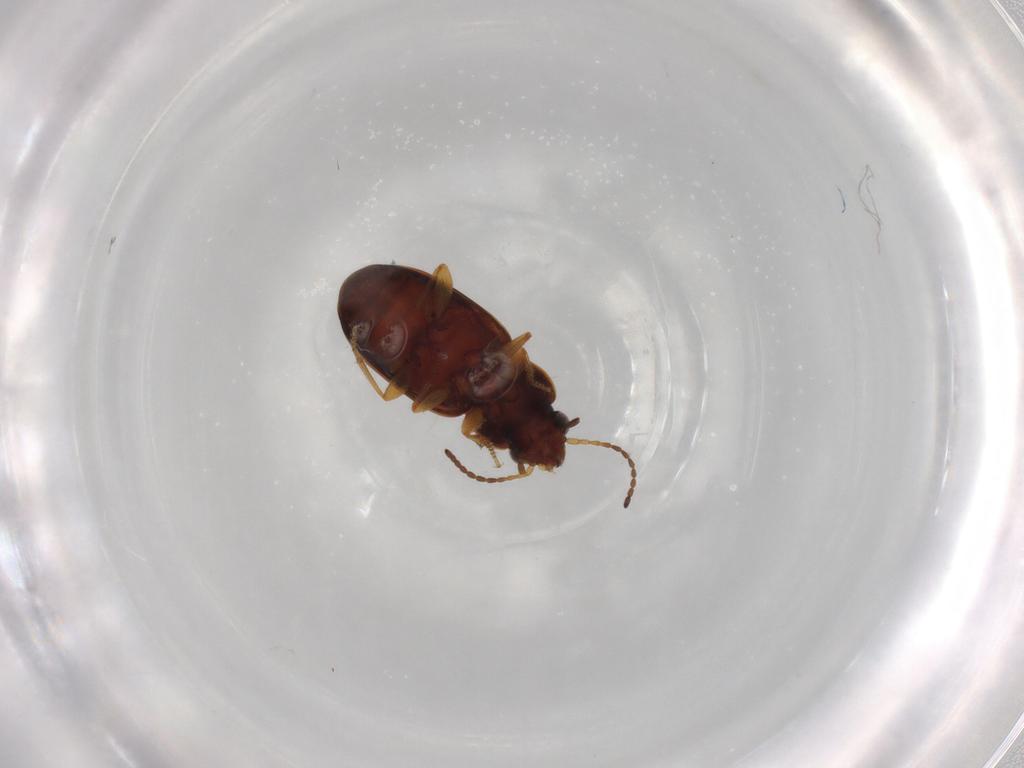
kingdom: Animalia
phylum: Arthropoda
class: Insecta
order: Coleoptera
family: Carabidae
